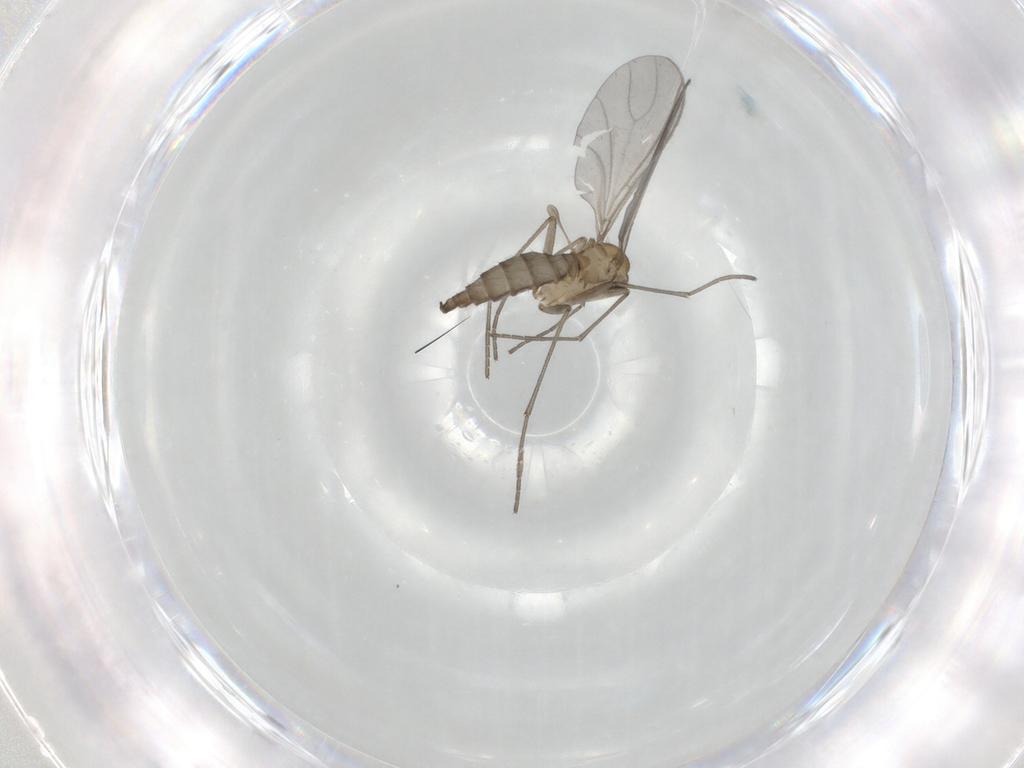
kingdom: Animalia
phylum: Arthropoda
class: Insecta
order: Diptera
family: Sciaridae
